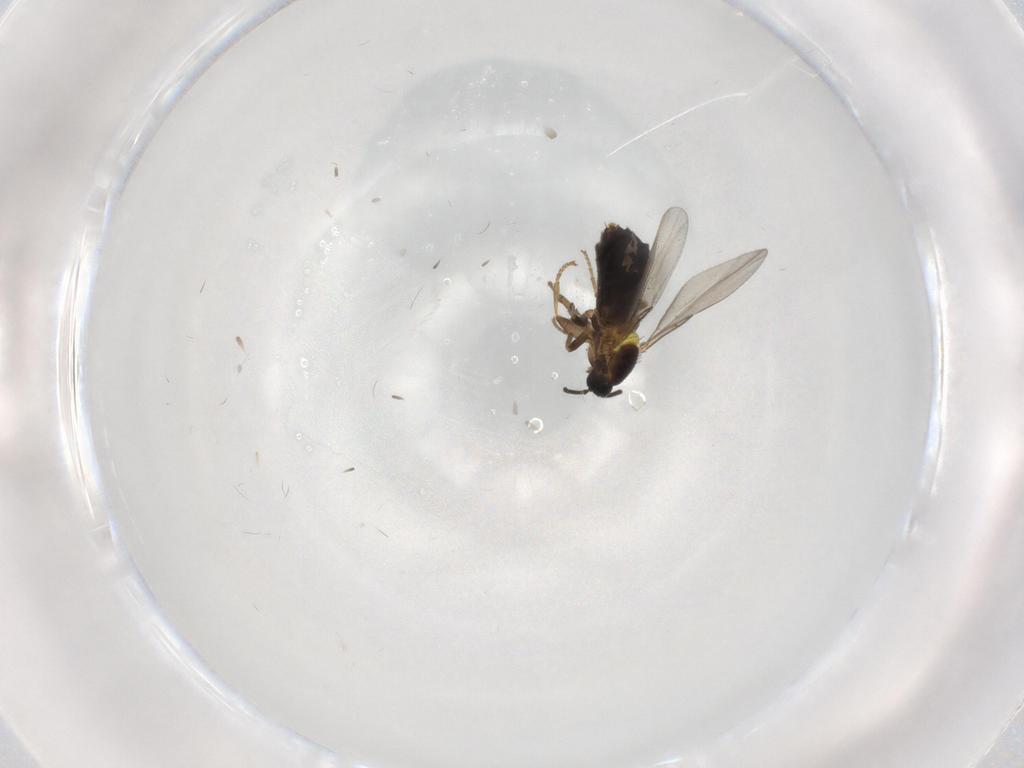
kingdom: Animalia
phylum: Arthropoda
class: Insecta
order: Diptera
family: Scatopsidae
